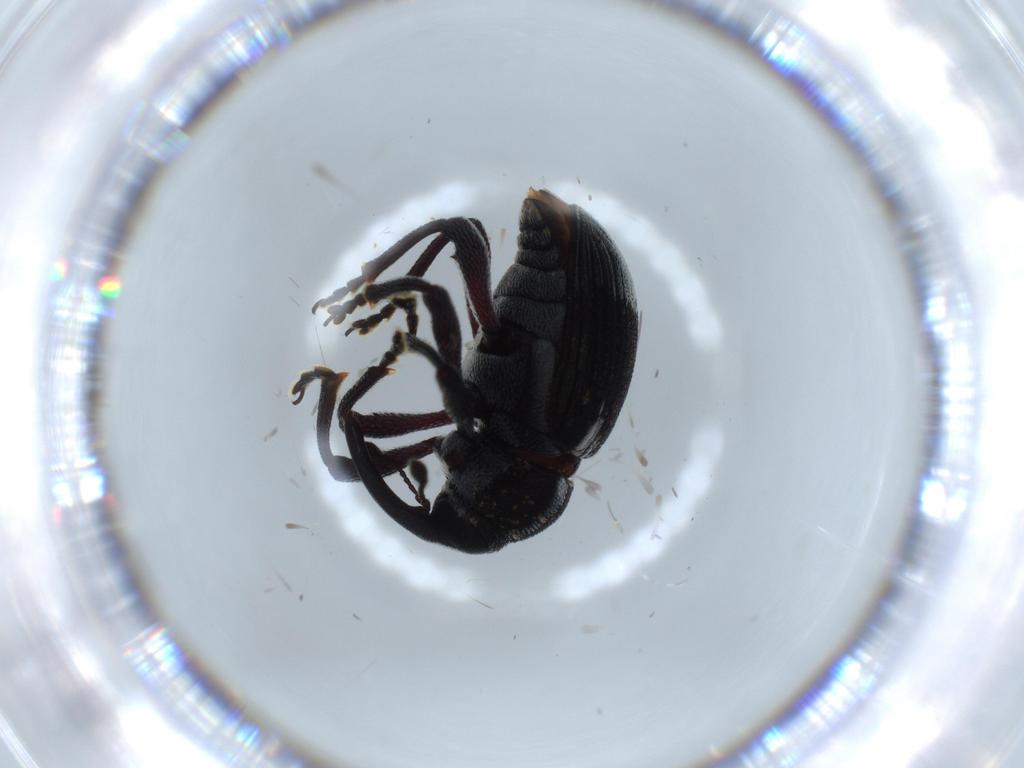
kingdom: Animalia
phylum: Arthropoda
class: Insecta
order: Coleoptera
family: Curculionidae
